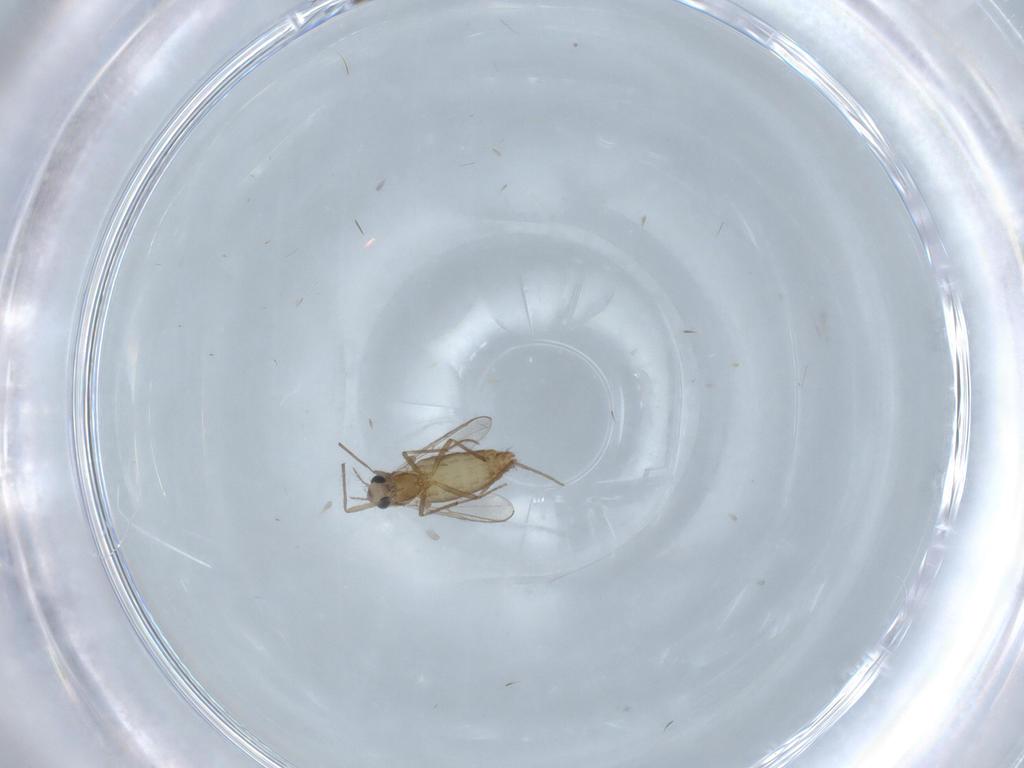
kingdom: Animalia
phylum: Arthropoda
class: Insecta
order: Diptera
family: Chironomidae
